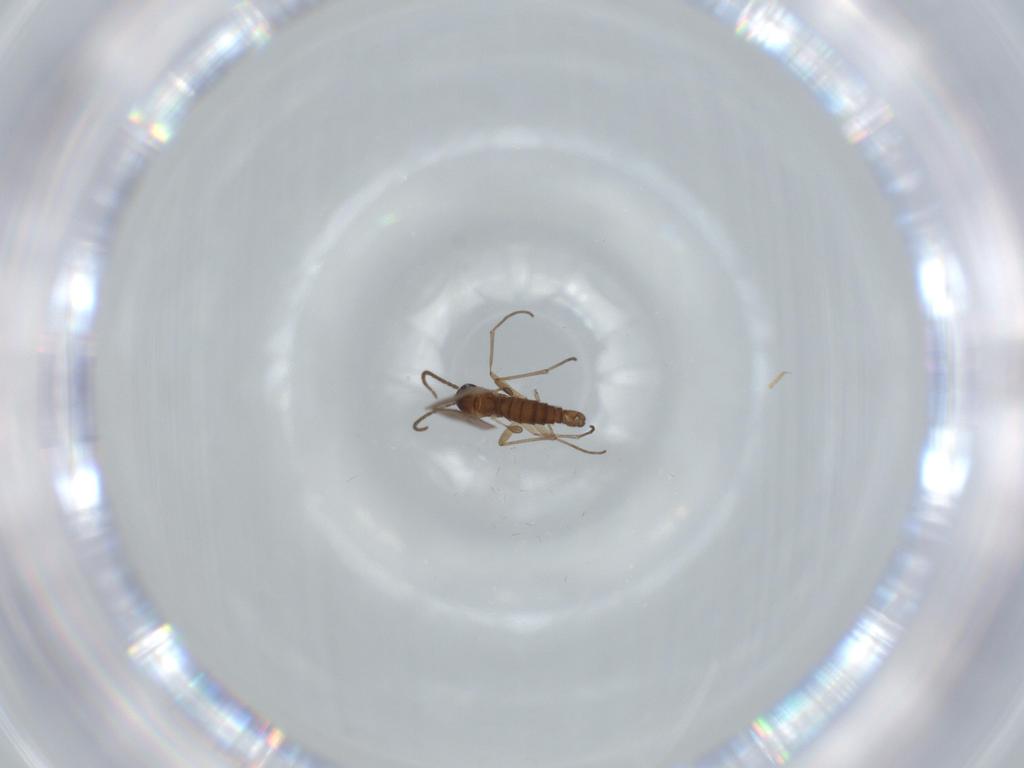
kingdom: Animalia
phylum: Arthropoda
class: Insecta
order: Diptera
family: Sphaeroceridae
